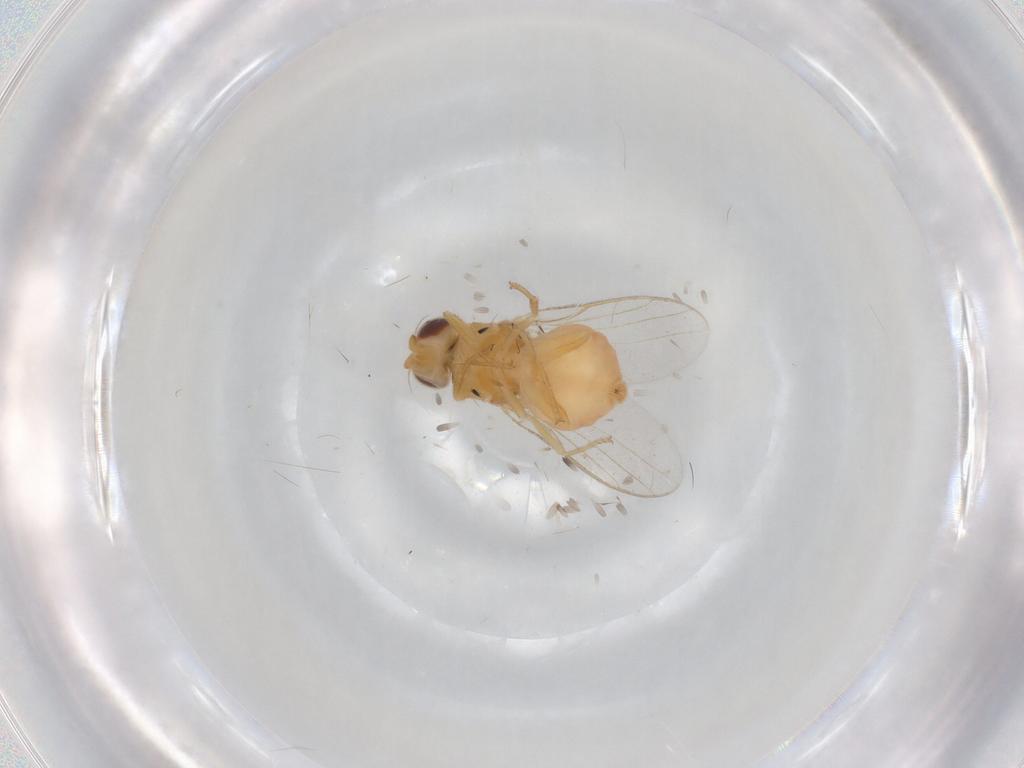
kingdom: Animalia
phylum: Arthropoda
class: Insecta
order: Diptera
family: Chloropidae
